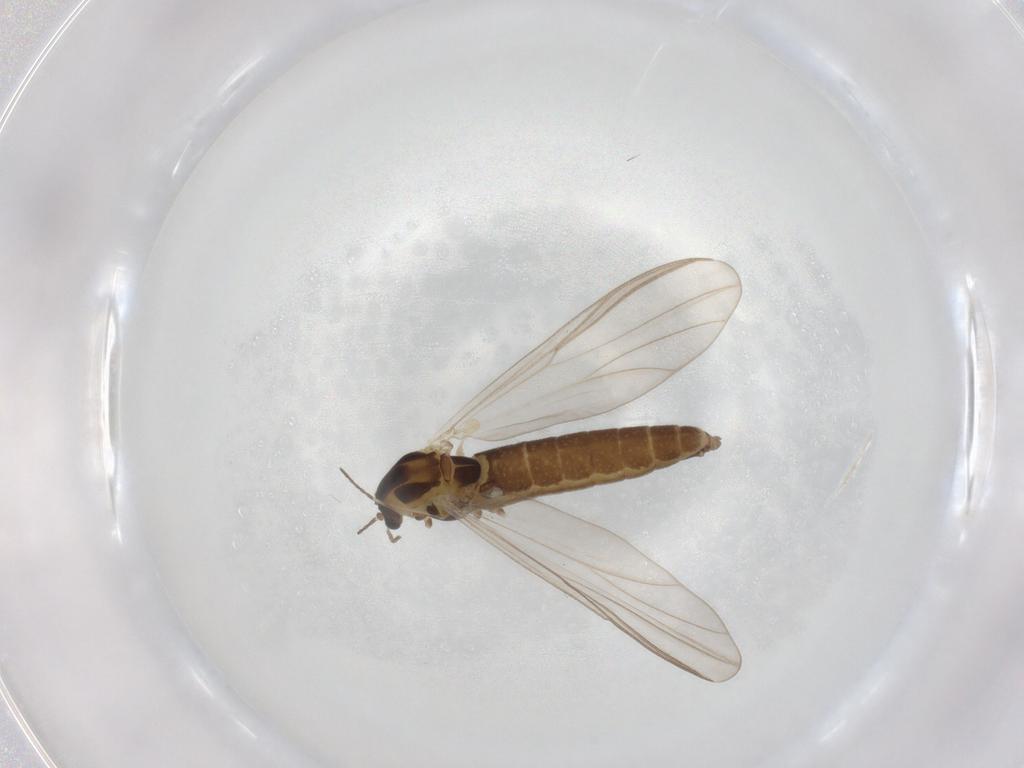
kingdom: Animalia
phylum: Arthropoda
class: Insecta
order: Diptera
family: Chironomidae
